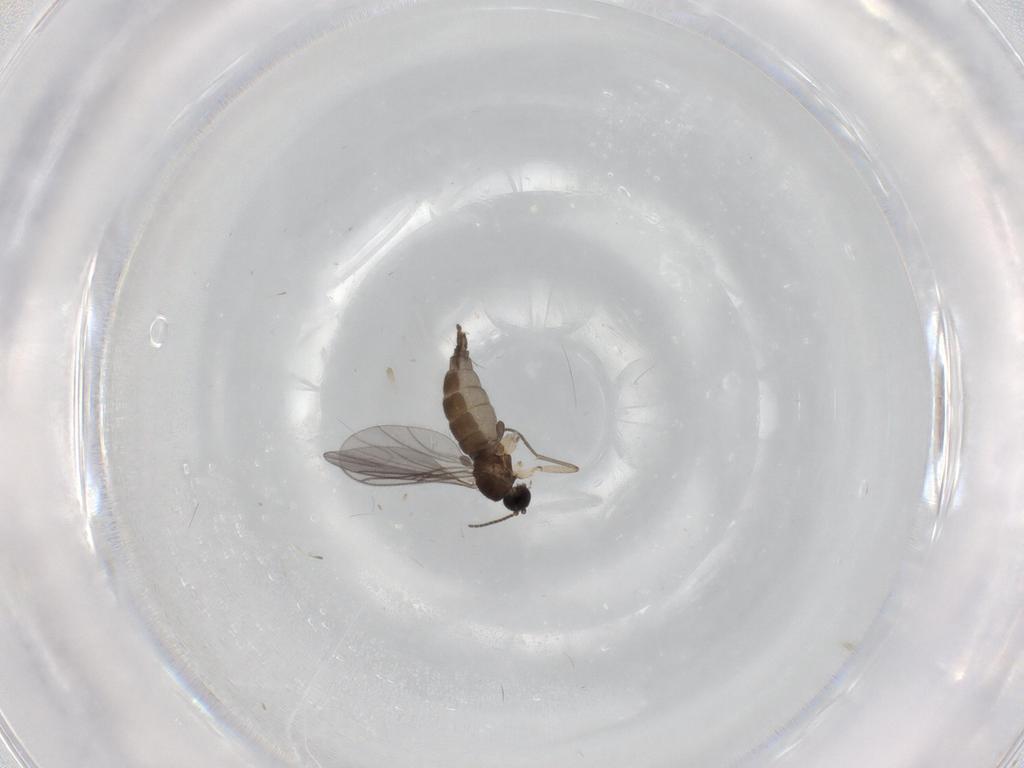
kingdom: Animalia
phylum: Arthropoda
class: Insecta
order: Diptera
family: Sciaridae
